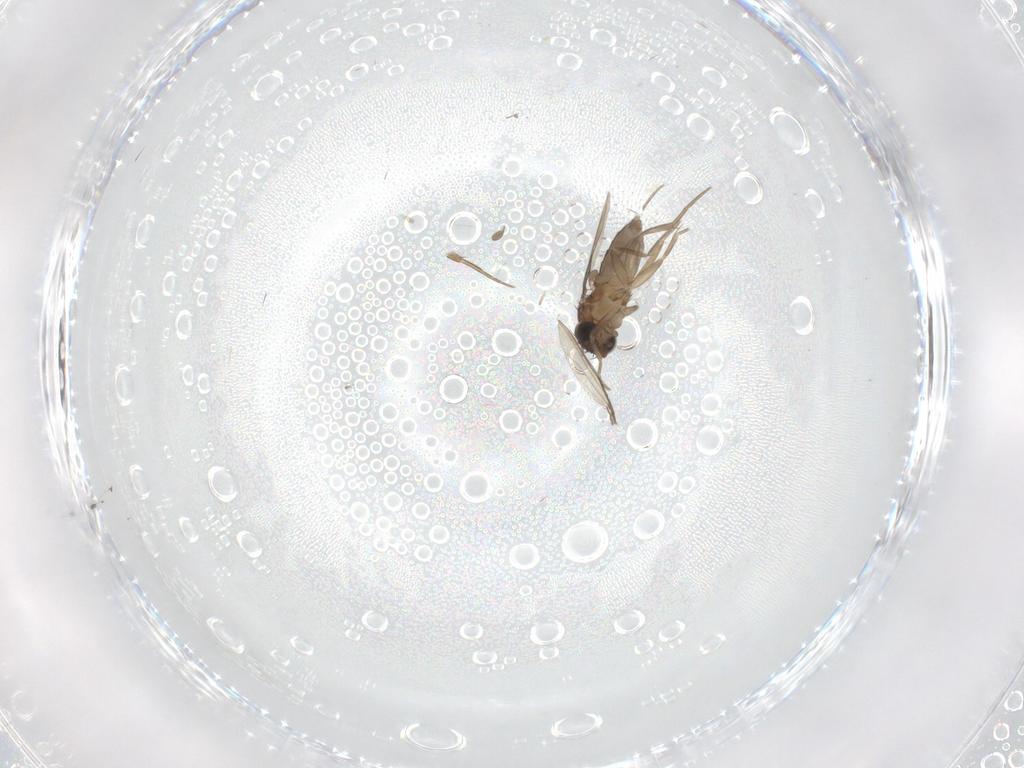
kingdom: Animalia
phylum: Arthropoda
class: Insecta
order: Diptera
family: Phoridae
